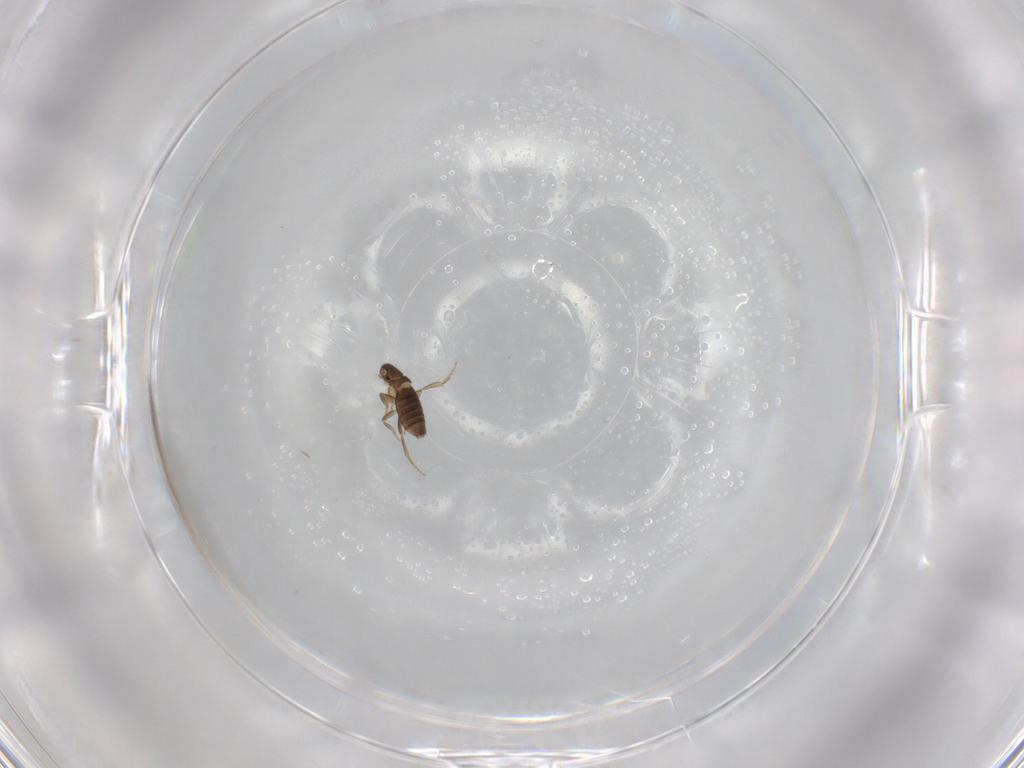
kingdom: Animalia
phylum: Arthropoda
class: Insecta
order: Diptera
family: Tabanidae
